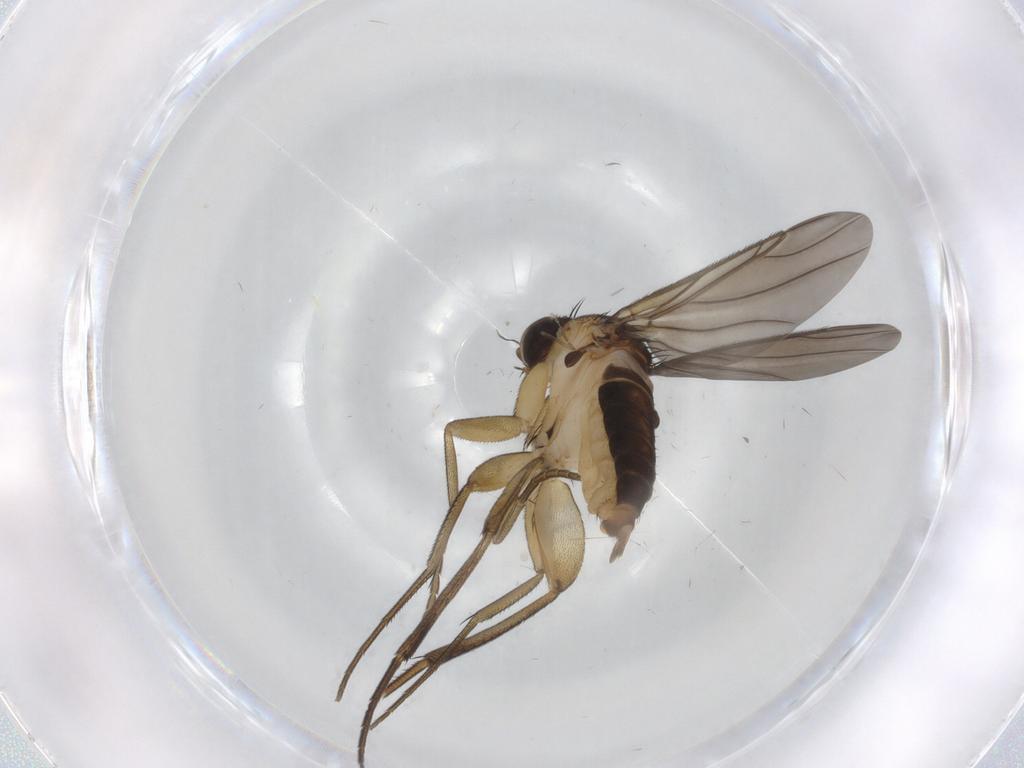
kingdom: Animalia
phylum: Arthropoda
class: Insecta
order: Diptera
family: Phoridae
